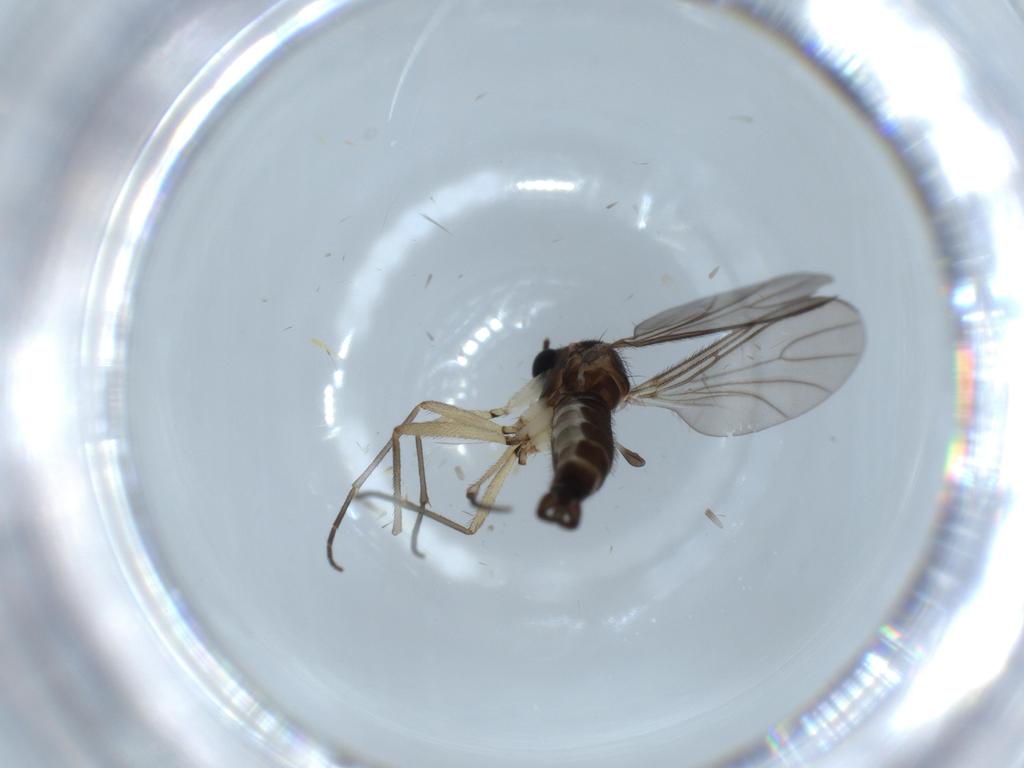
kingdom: Animalia
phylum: Arthropoda
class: Insecta
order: Diptera
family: Sciaridae
